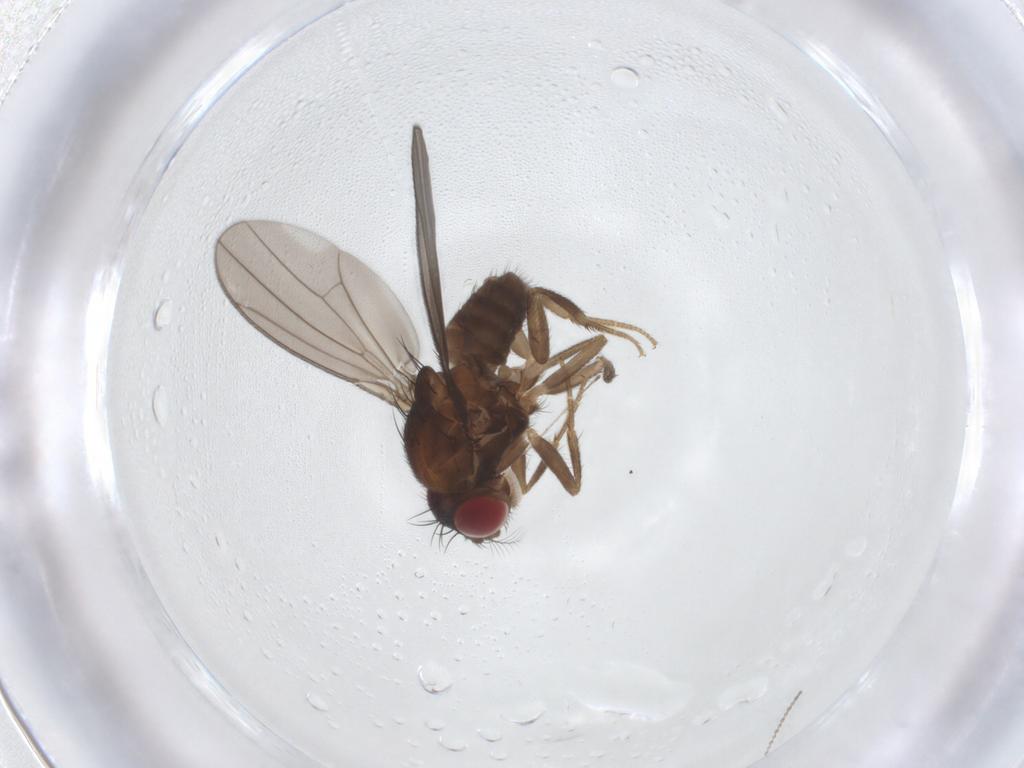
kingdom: Animalia
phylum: Arthropoda
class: Insecta
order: Diptera
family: Drosophilidae
